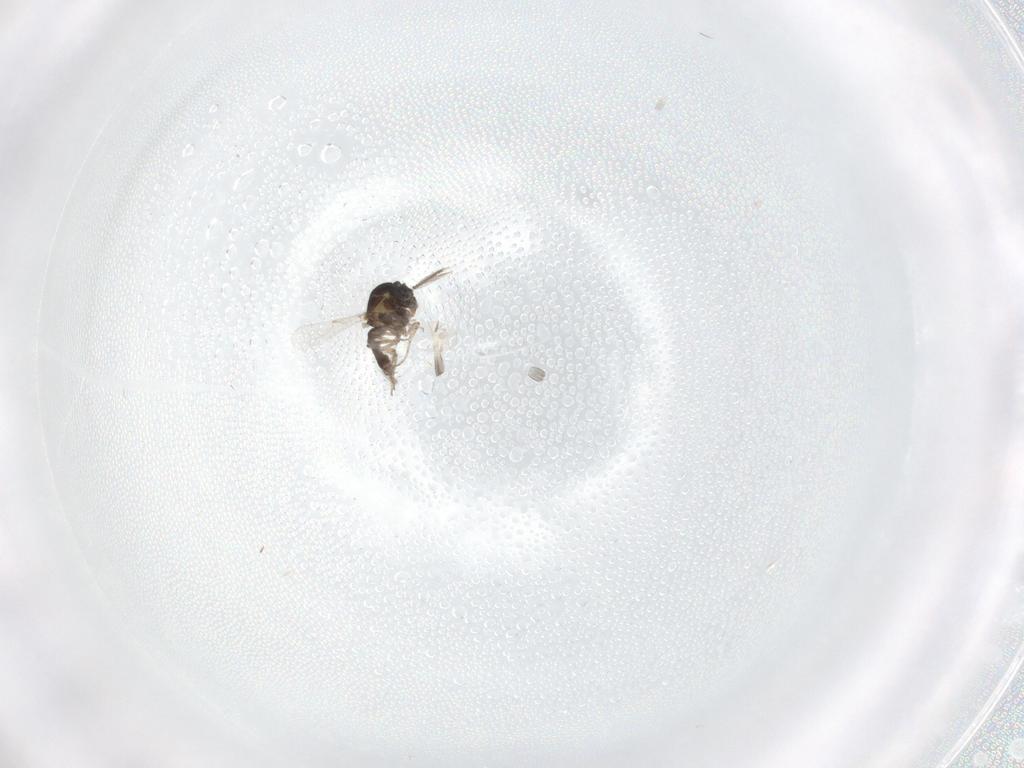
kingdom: Animalia
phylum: Arthropoda
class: Insecta
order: Diptera
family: Ceratopogonidae
